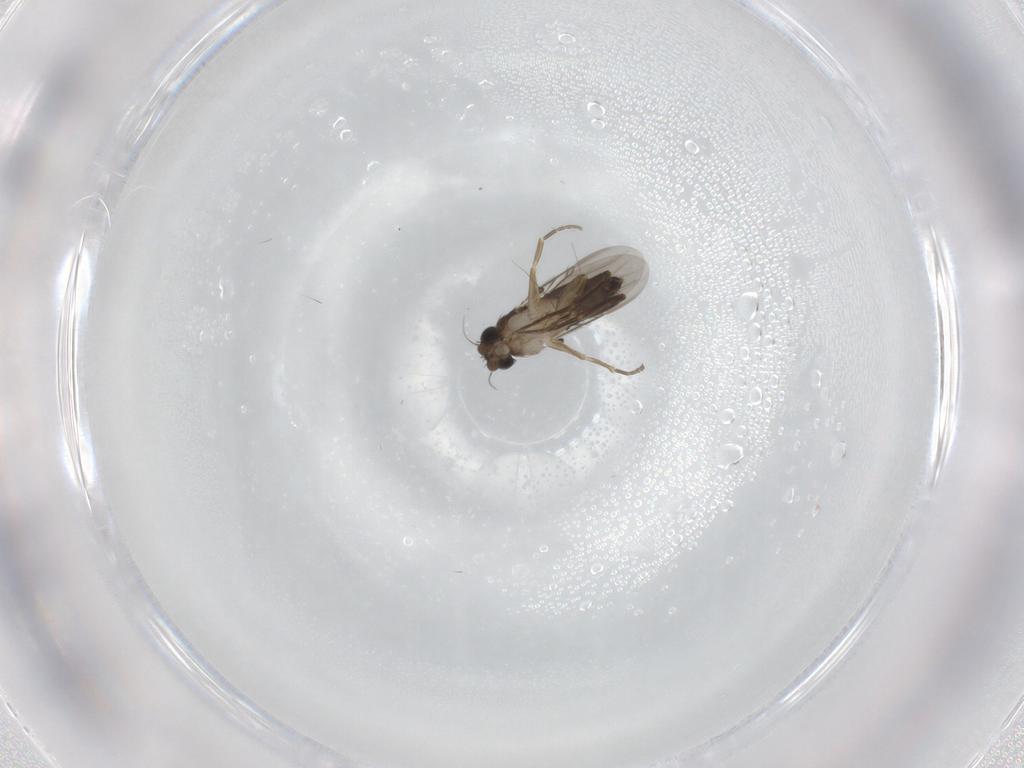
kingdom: Animalia
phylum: Arthropoda
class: Insecta
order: Diptera
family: Phoridae
